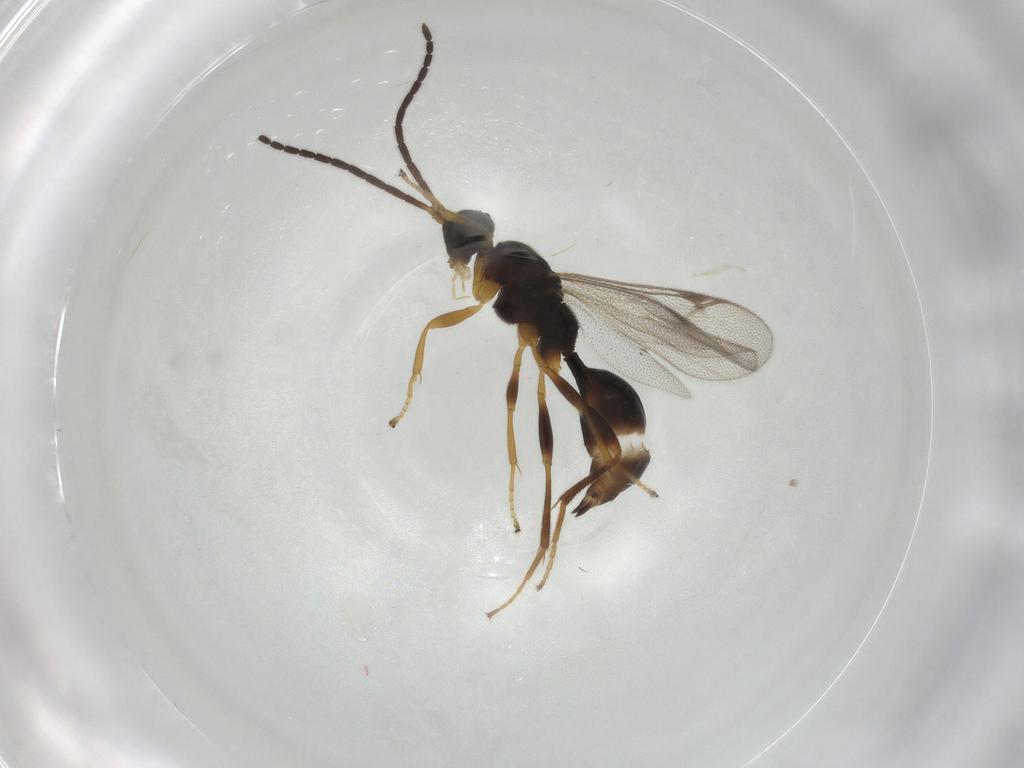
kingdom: Animalia
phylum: Arthropoda
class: Insecta
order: Hymenoptera
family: Proctotrupidae
